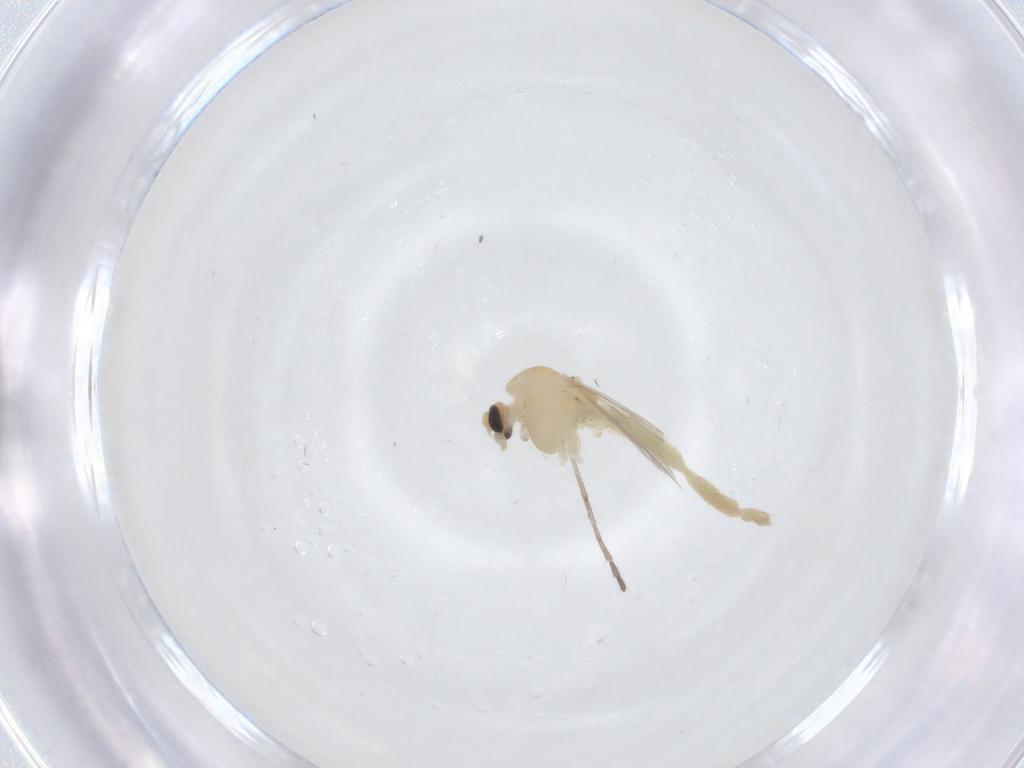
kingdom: Animalia
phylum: Arthropoda
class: Insecta
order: Diptera
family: Chironomidae
